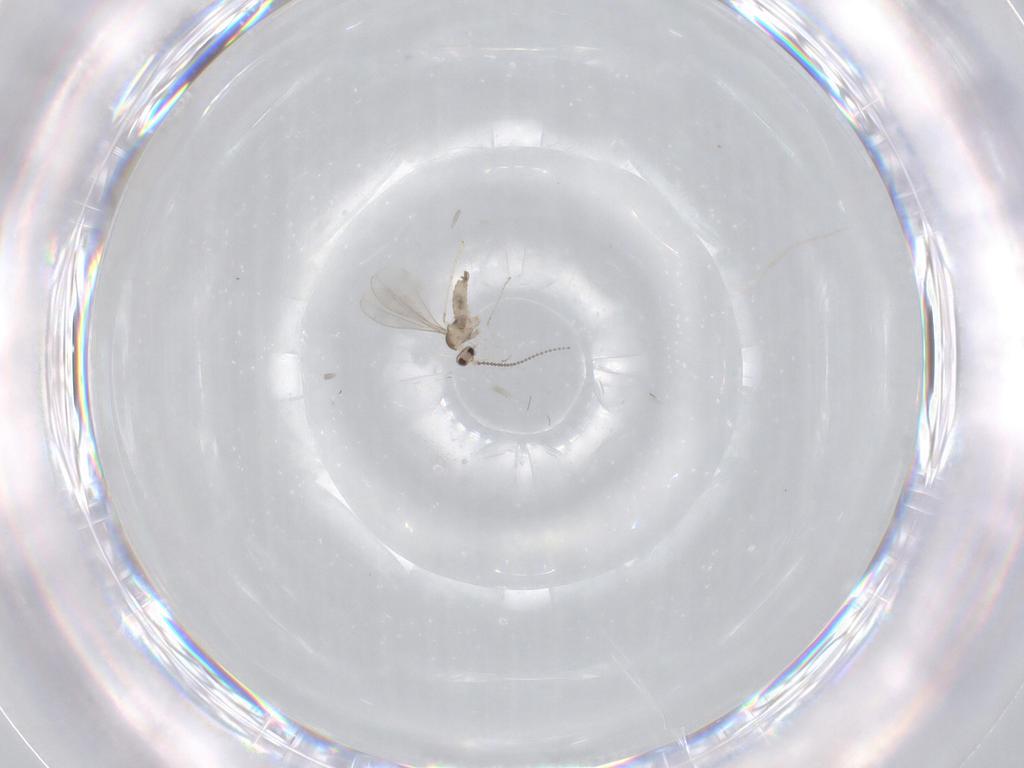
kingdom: Animalia
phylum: Arthropoda
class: Insecta
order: Diptera
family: Cecidomyiidae
